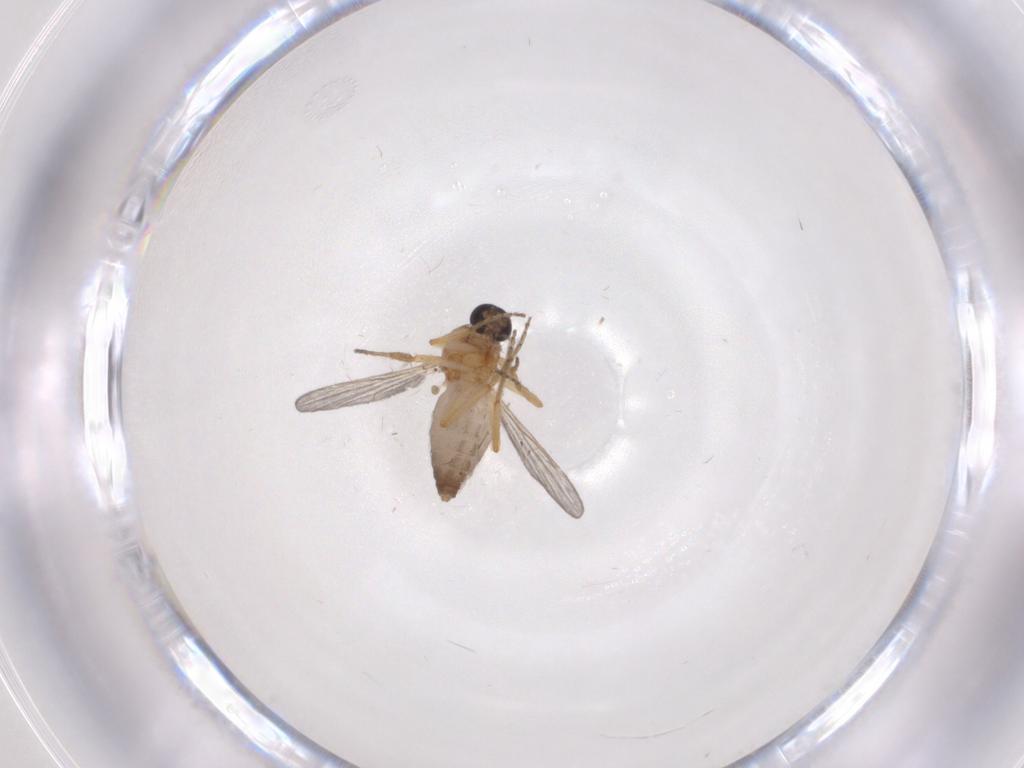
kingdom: Animalia
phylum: Arthropoda
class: Insecta
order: Diptera
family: Ceratopogonidae
